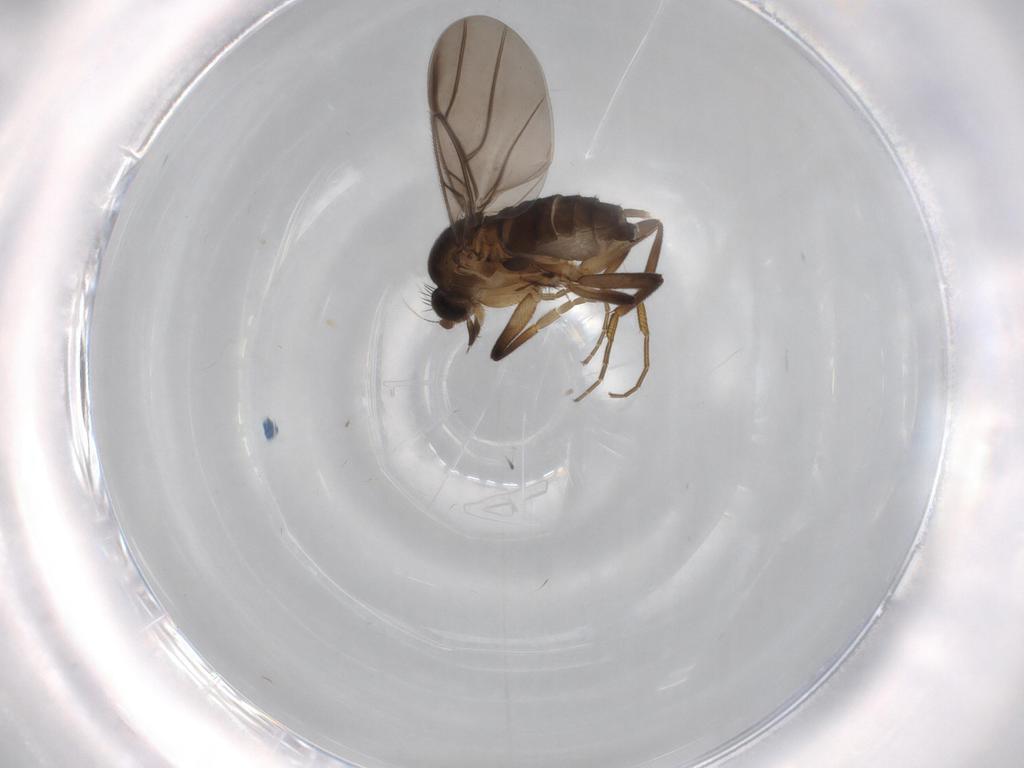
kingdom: Animalia
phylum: Arthropoda
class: Insecta
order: Diptera
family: Phoridae
